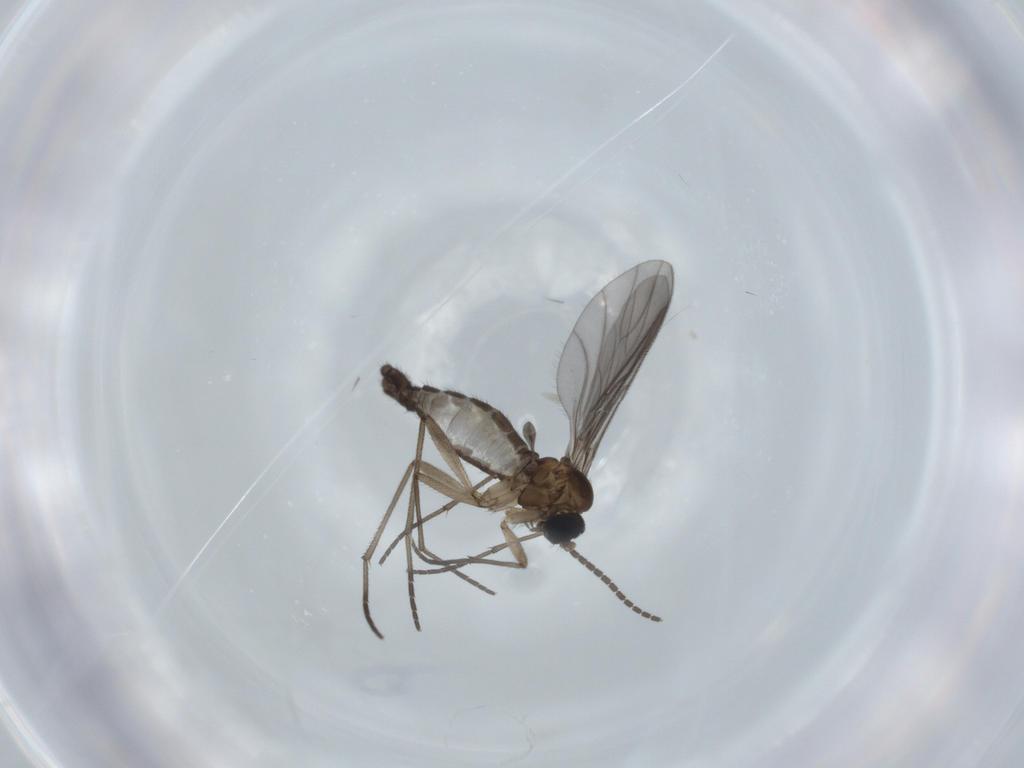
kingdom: Animalia
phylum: Arthropoda
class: Insecta
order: Diptera
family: Sciaridae
